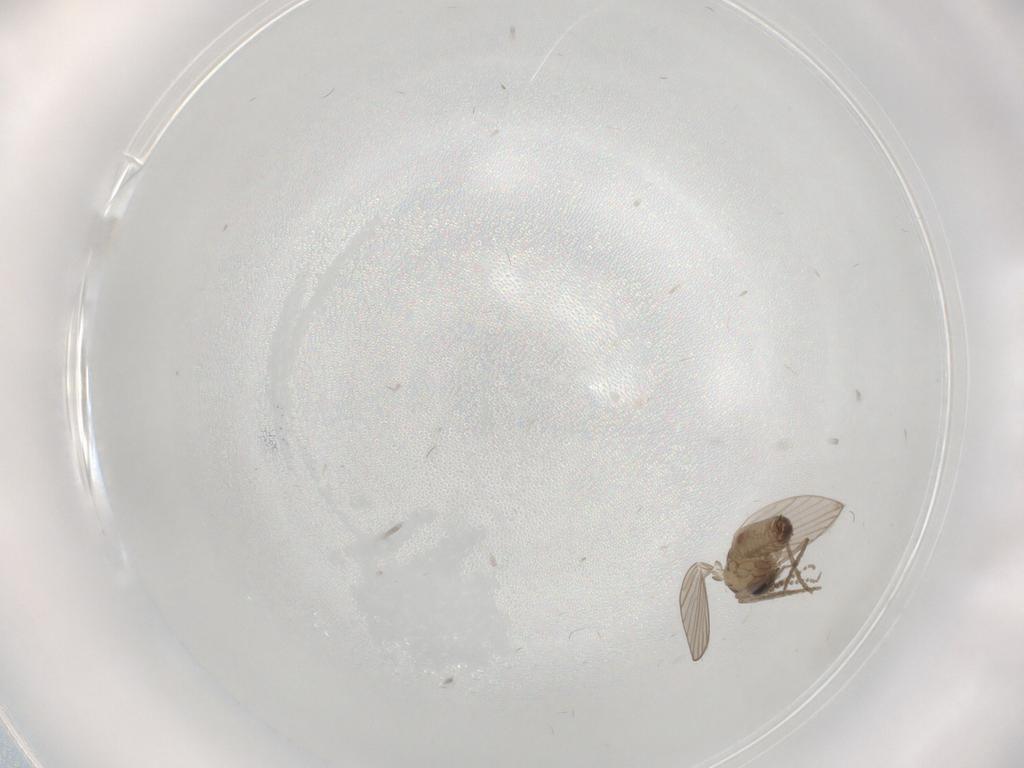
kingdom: Animalia
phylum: Arthropoda
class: Insecta
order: Diptera
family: Psychodidae
